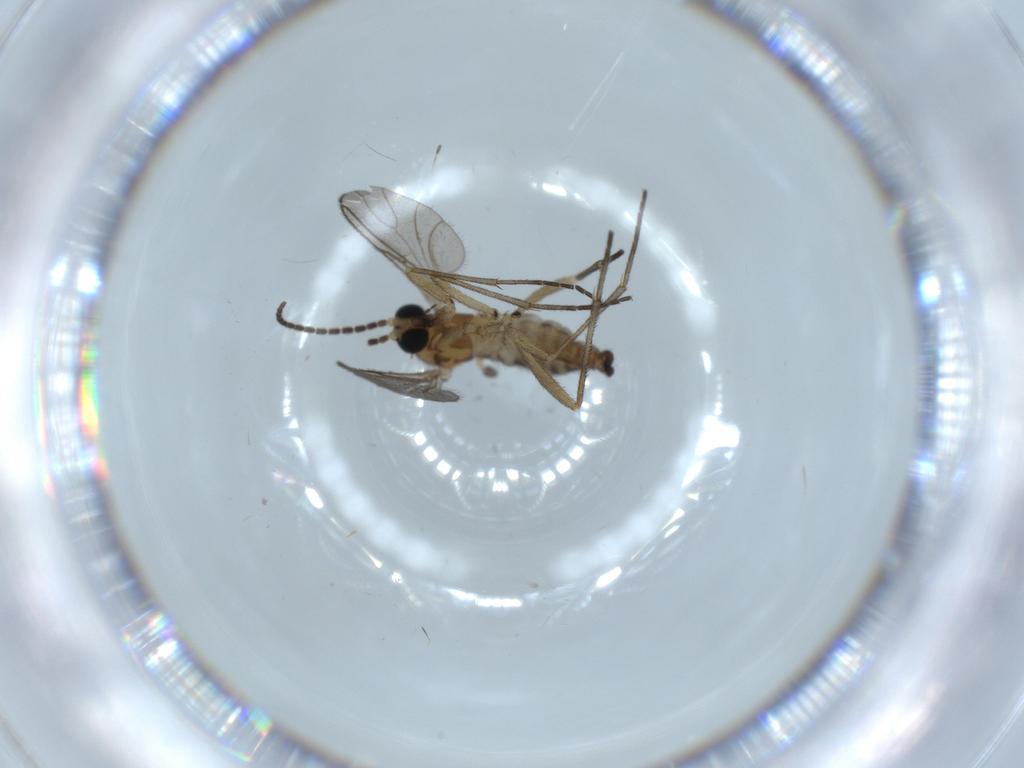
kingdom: Animalia
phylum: Arthropoda
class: Insecta
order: Diptera
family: Sciaridae
